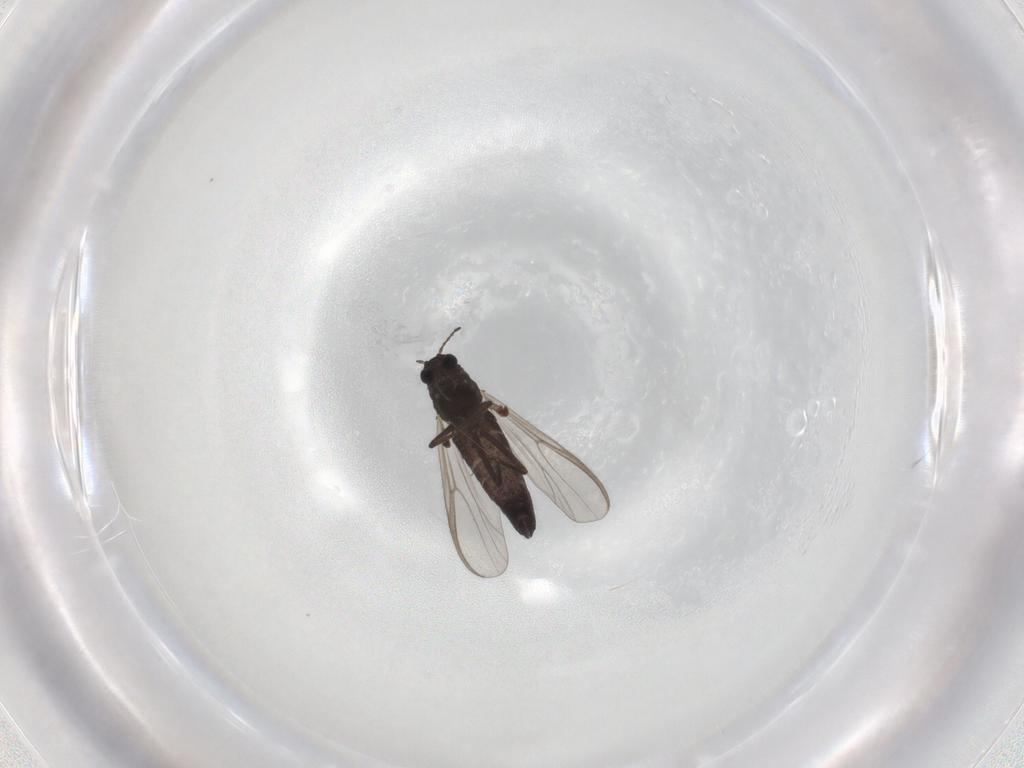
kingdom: Animalia
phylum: Arthropoda
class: Insecta
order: Diptera
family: Chironomidae
